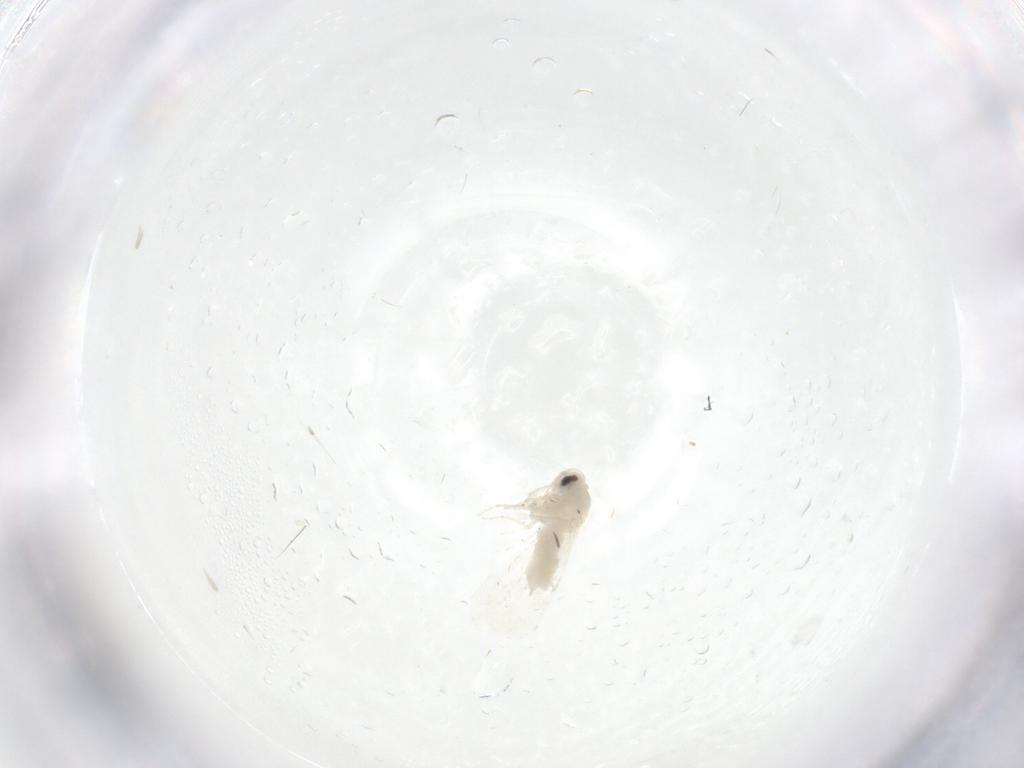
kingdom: Animalia
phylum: Arthropoda
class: Insecta
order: Hemiptera
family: Aleyrodidae
